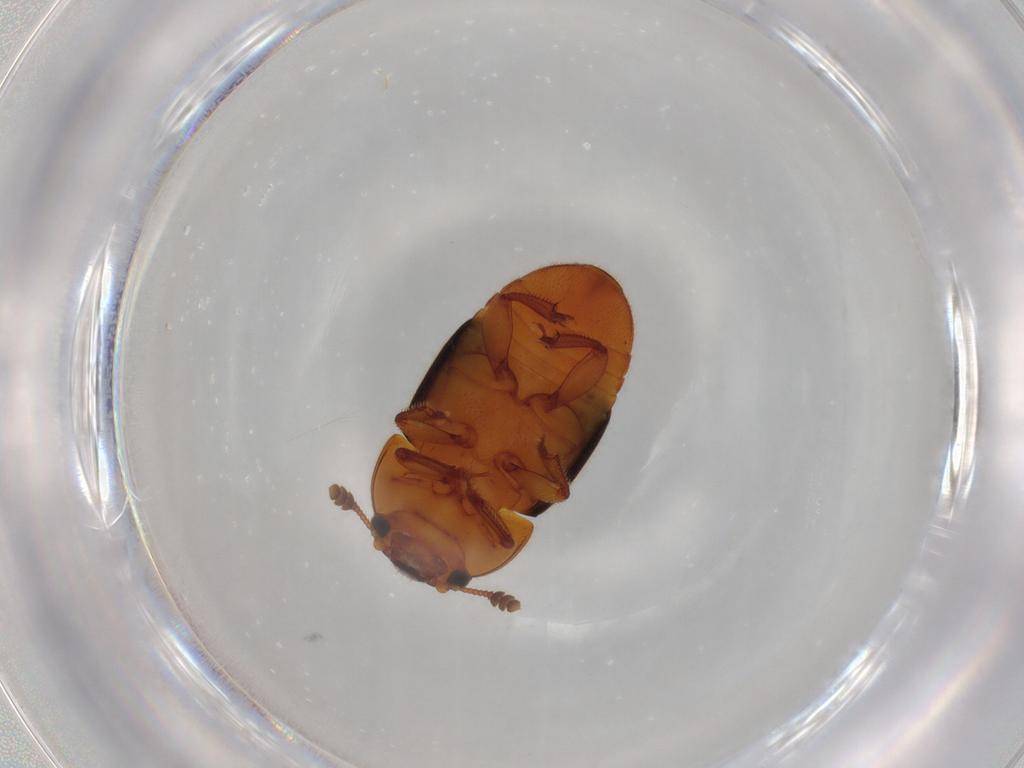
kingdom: Animalia
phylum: Arthropoda
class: Insecta
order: Coleoptera
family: Nitidulidae
